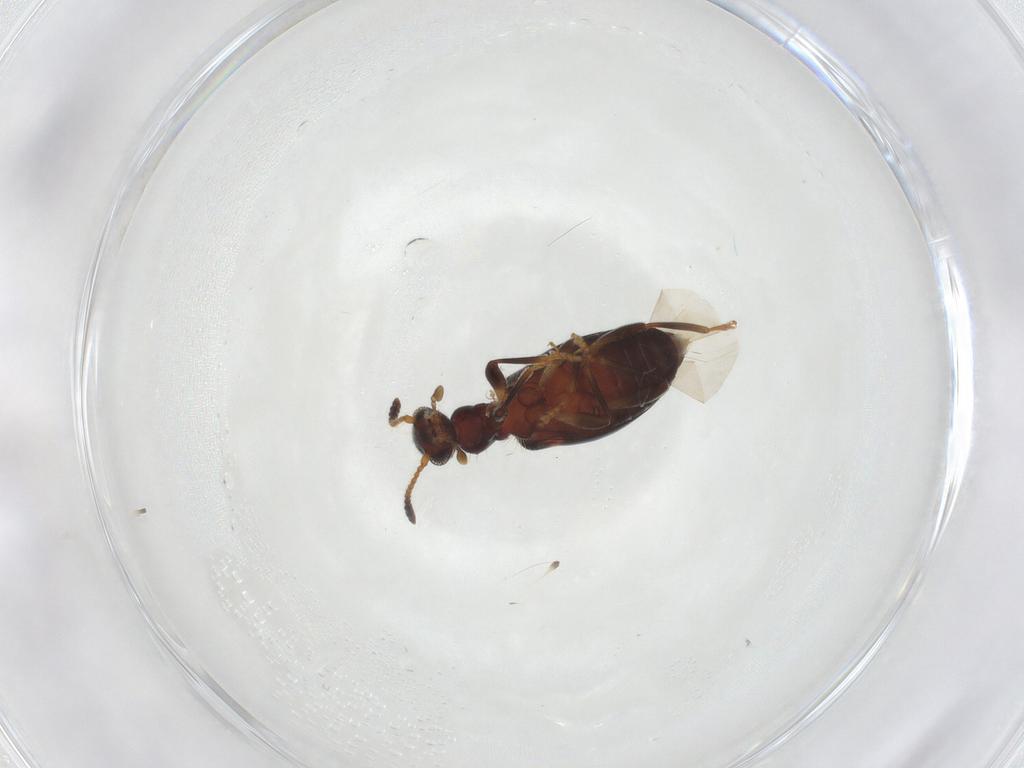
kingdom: Animalia
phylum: Arthropoda
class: Insecta
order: Coleoptera
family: Anthicidae
